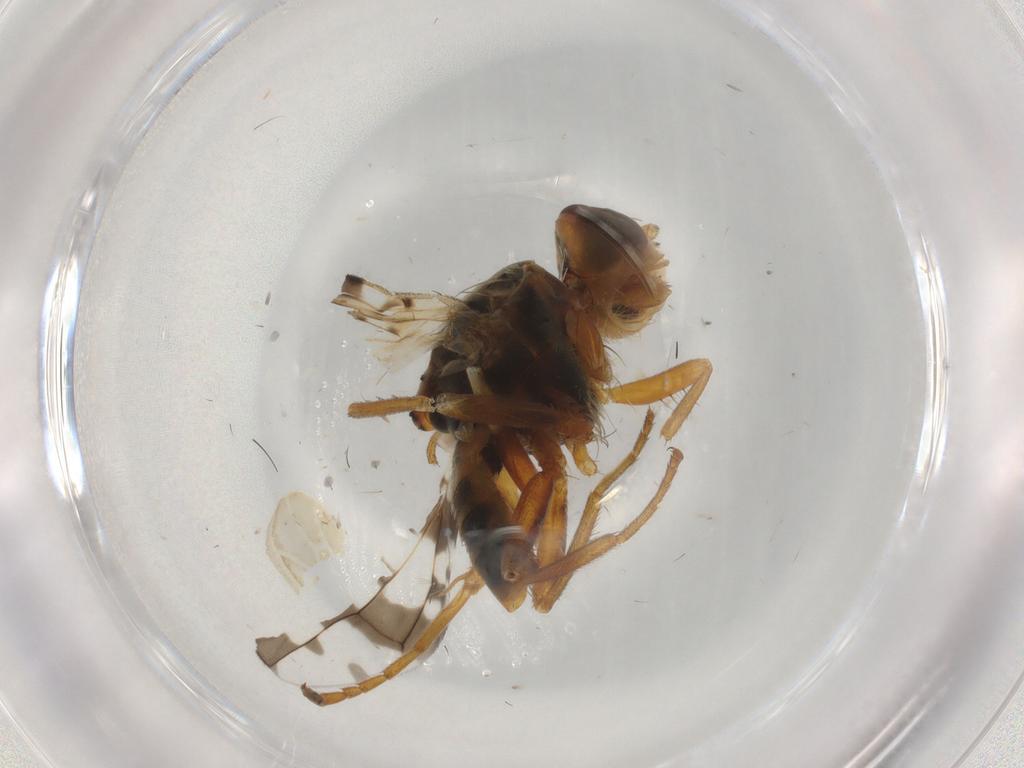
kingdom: Animalia
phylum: Arthropoda
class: Insecta
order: Diptera
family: Tephritidae
